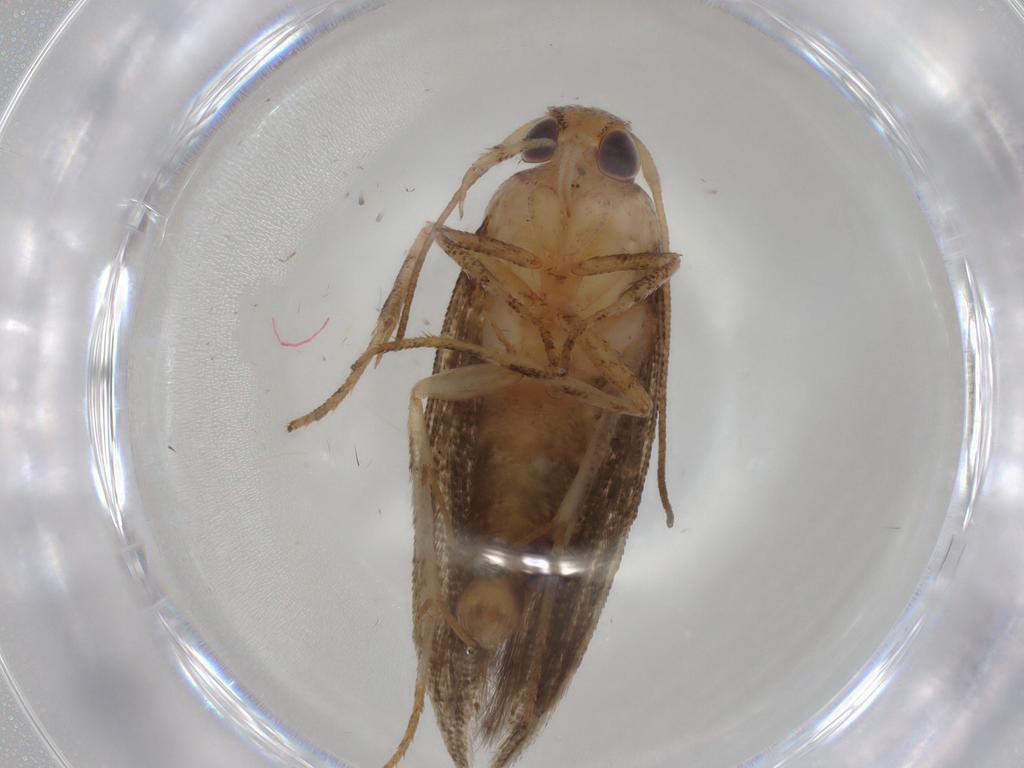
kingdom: Animalia
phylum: Arthropoda
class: Insecta
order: Lepidoptera
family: Elachistidae
